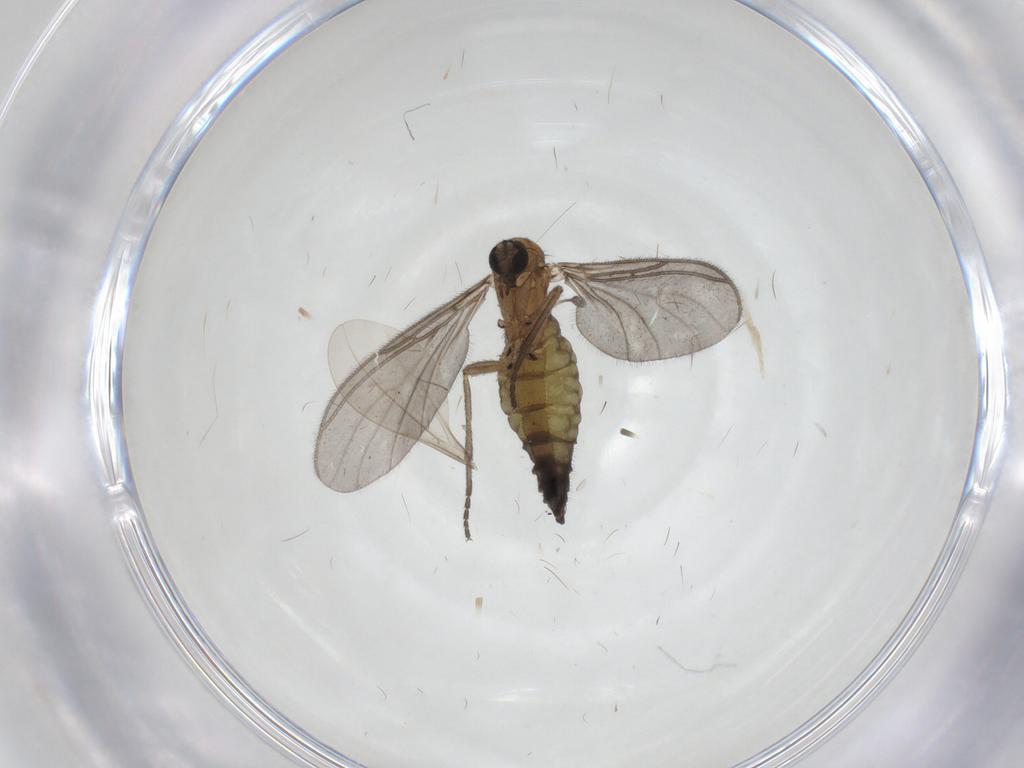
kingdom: Animalia
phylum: Arthropoda
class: Insecta
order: Diptera
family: Sciaridae
